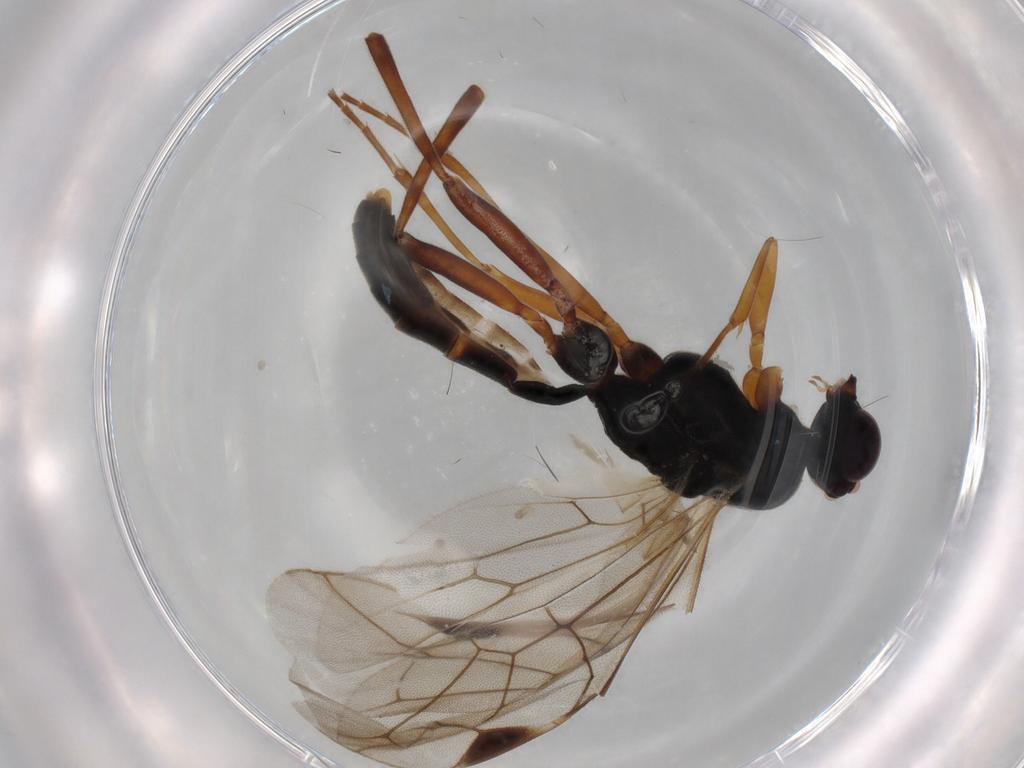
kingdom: Animalia
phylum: Arthropoda
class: Insecta
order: Hymenoptera
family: Ichneumonidae
